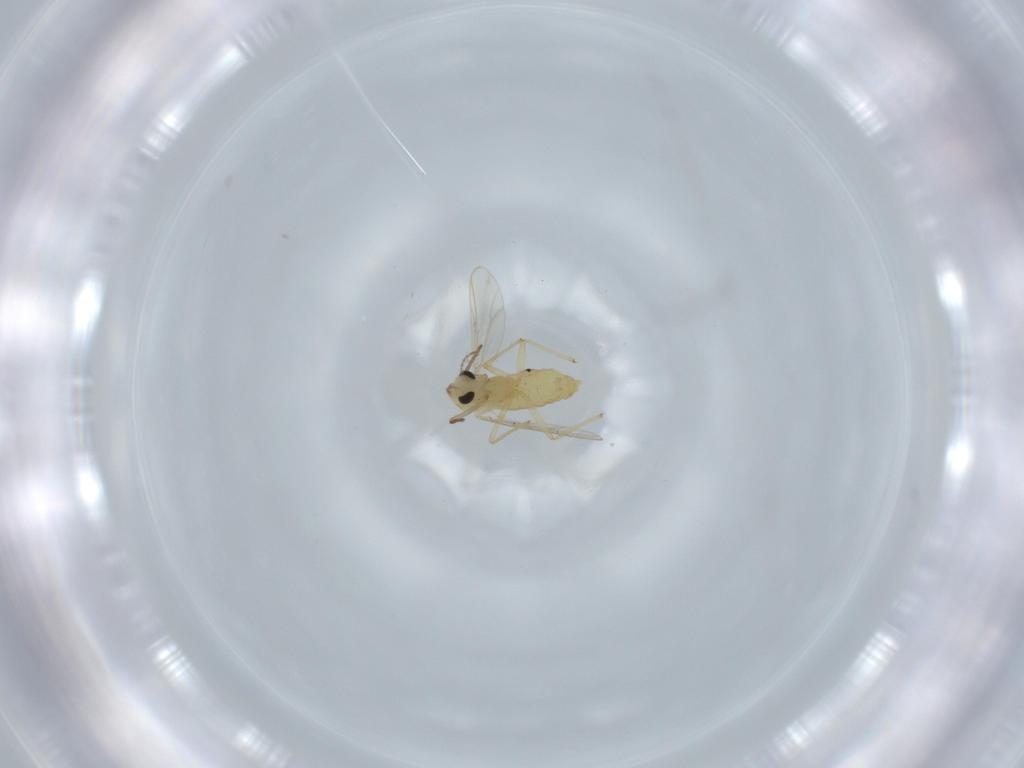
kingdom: Animalia
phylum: Arthropoda
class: Insecta
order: Diptera
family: Chironomidae
